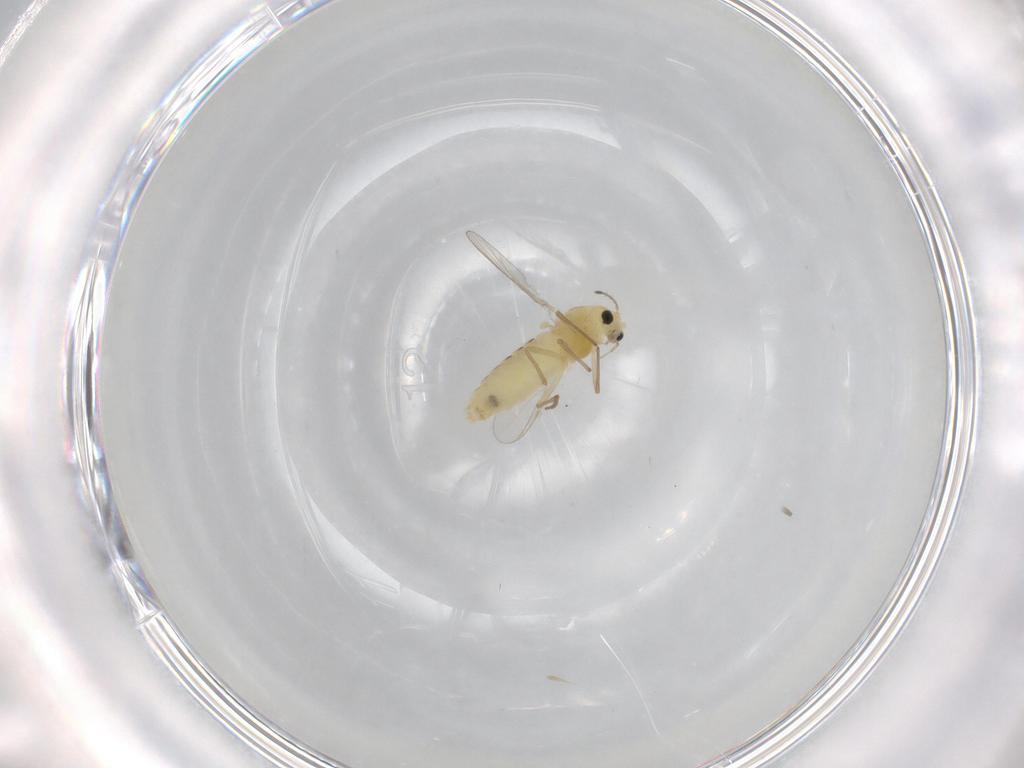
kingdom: Animalia
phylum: Arthropoda
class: Insecta
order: Diptera
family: Chironomidae
